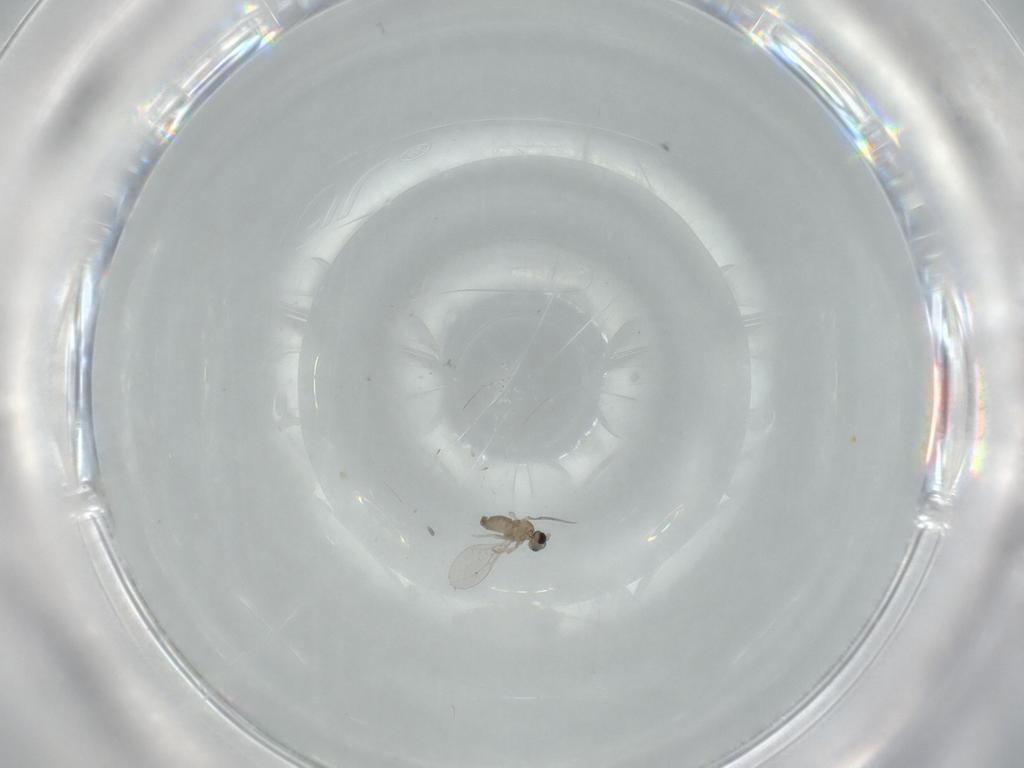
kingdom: Animalia
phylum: Arthropoda
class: Insecta
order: Diptera
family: Cecidomyiidae
